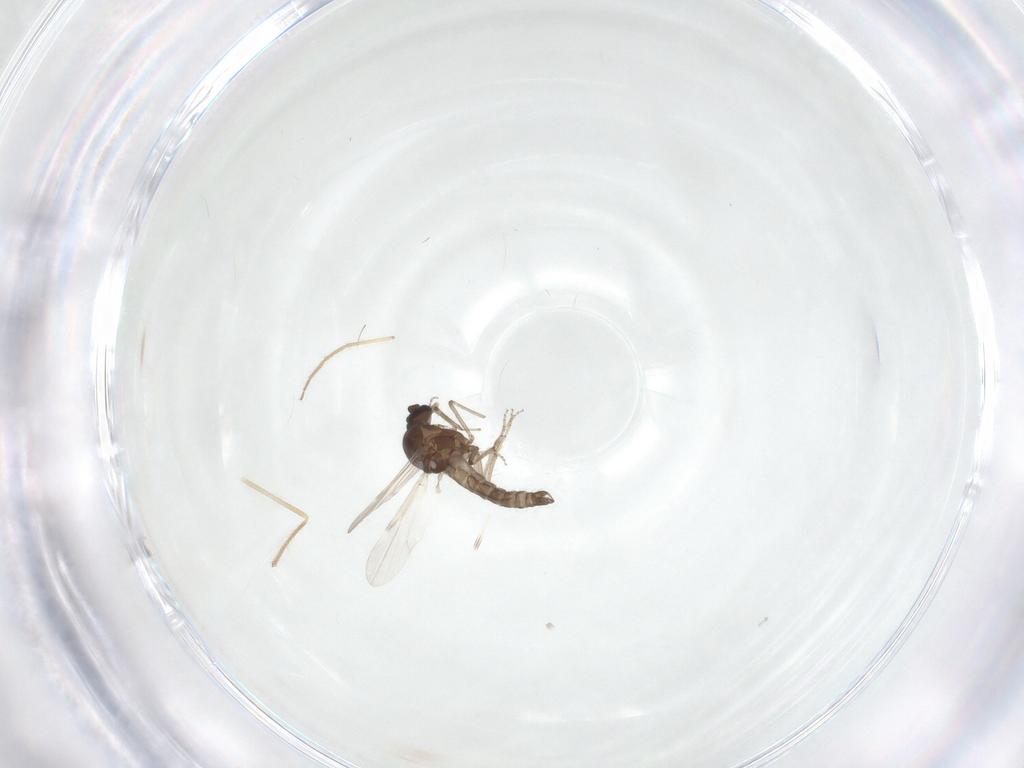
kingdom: Animalia
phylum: Arthropoda
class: Insecta
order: Diptera
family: Chironomidae
